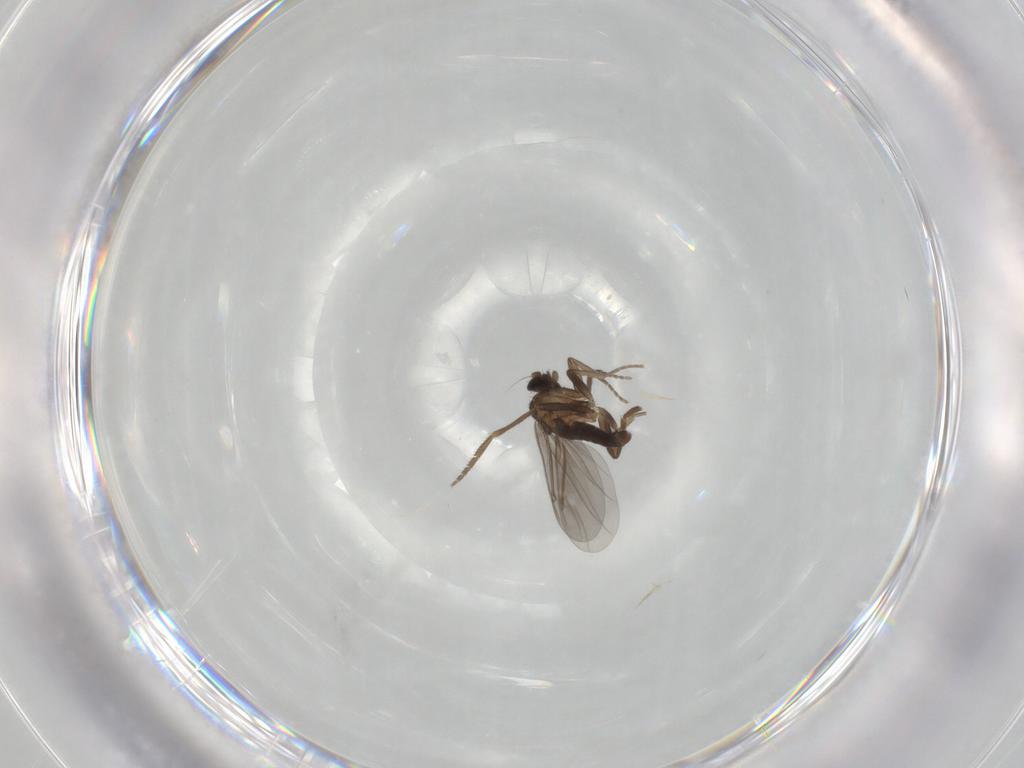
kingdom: Animalia
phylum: Arthropoda
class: Insecta
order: Diptera
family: Phoridae
